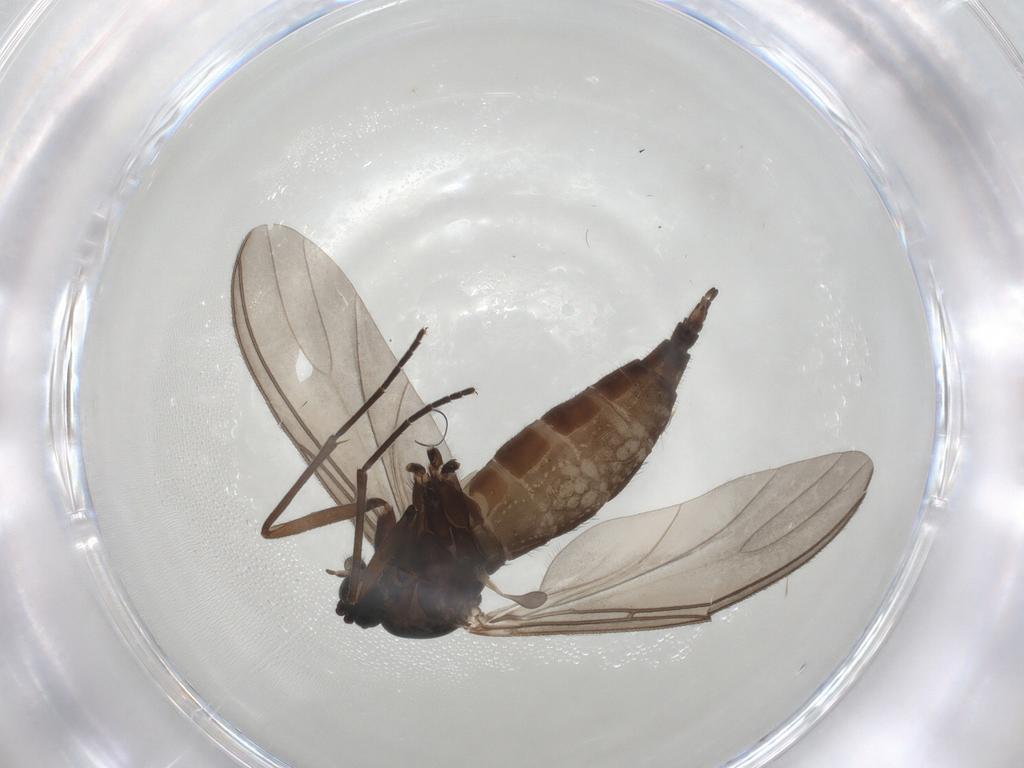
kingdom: Animalia
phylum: Arthropoda
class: Insecta
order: Diptera
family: Sciaridae
